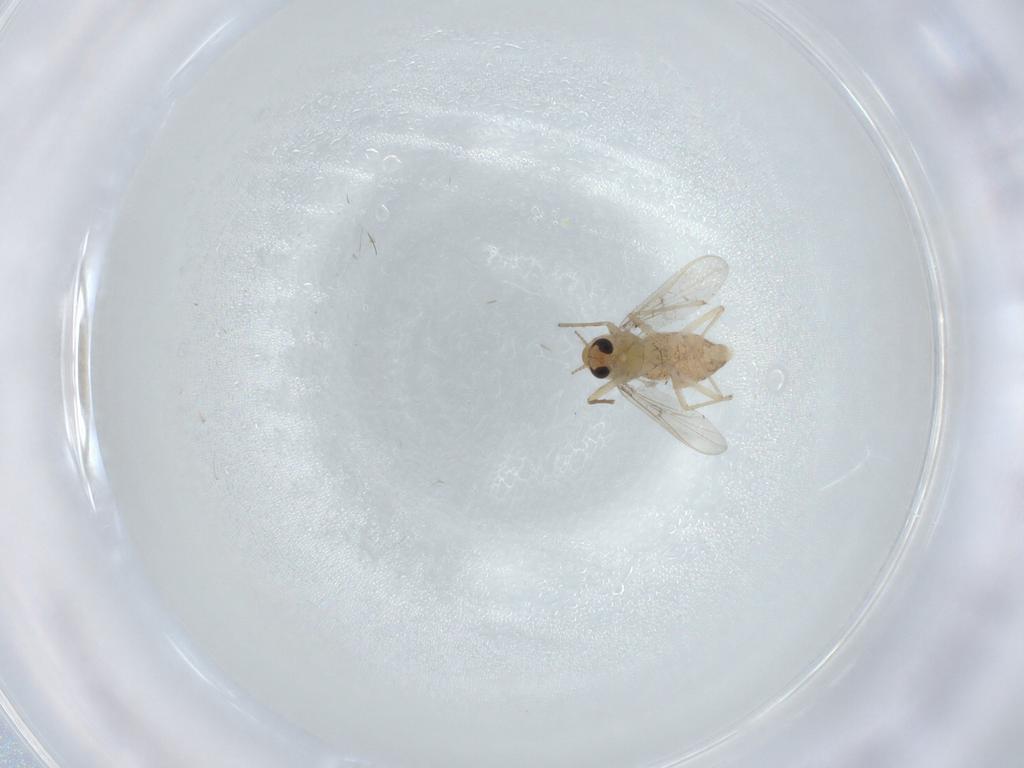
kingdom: Animalia
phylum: Arthropoda
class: Insecta
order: Diptera
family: Chironomidae
